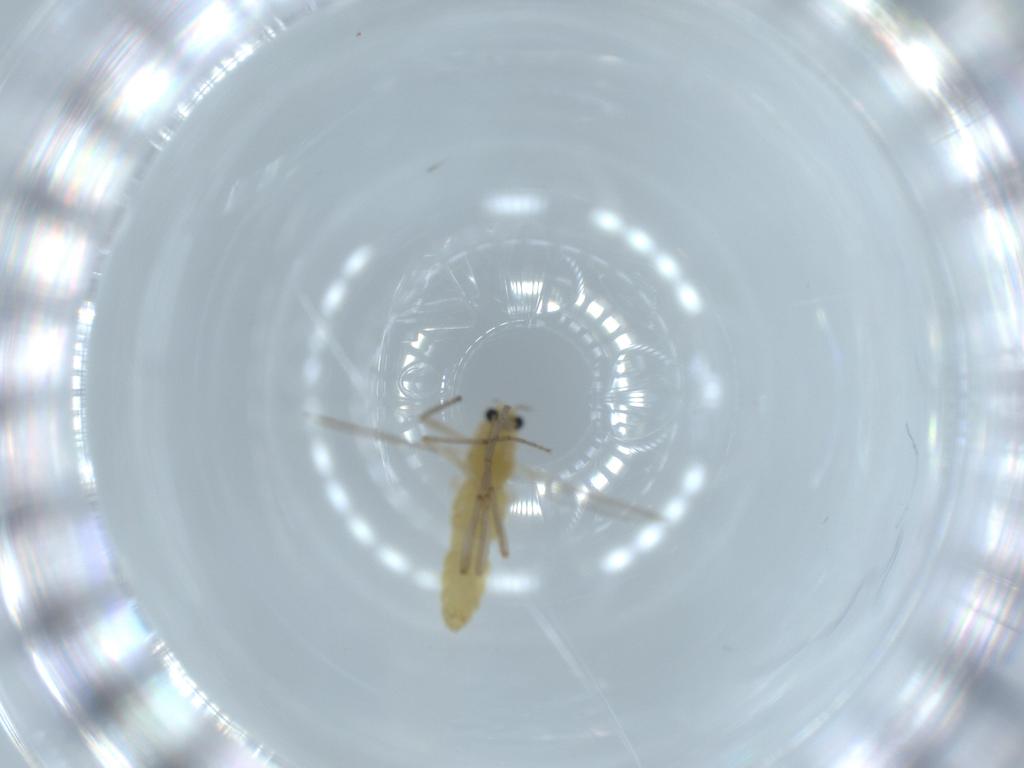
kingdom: Animalia
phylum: Arthropoda
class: Insecta
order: Diptera
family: Chironomidae
